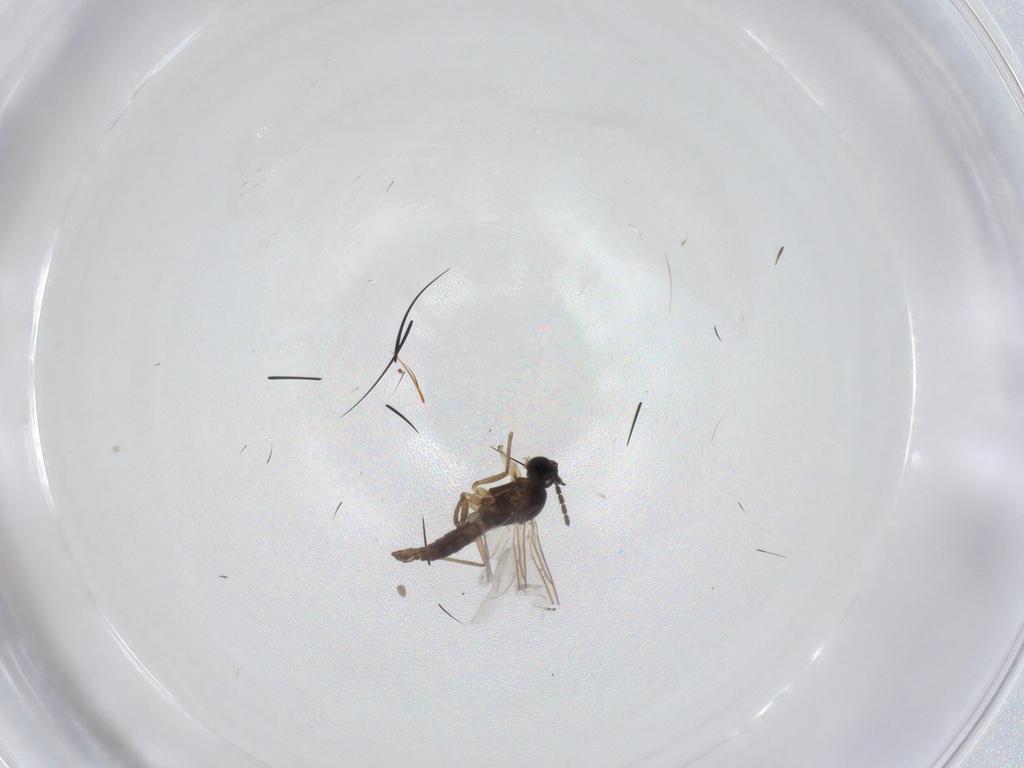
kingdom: Animalia
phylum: Arthropoda
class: Insecta
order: Diptera
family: Sciaridae
